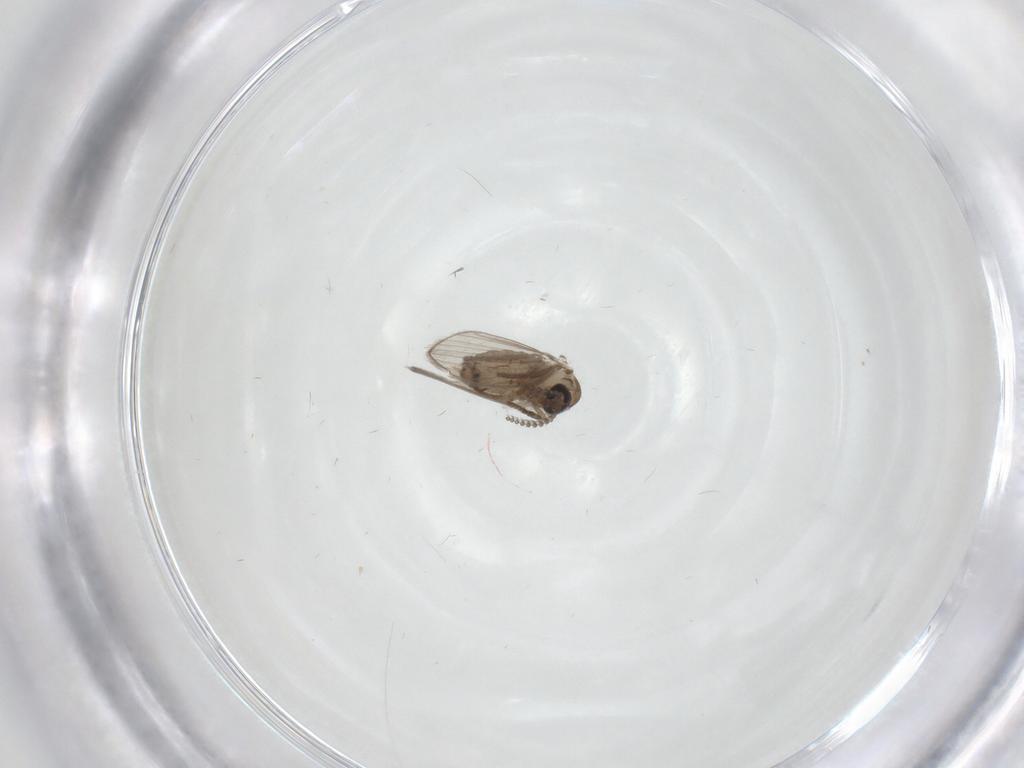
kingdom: Animalia
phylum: Arthropoda
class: Insecta
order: Diptera
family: Psychodidae
